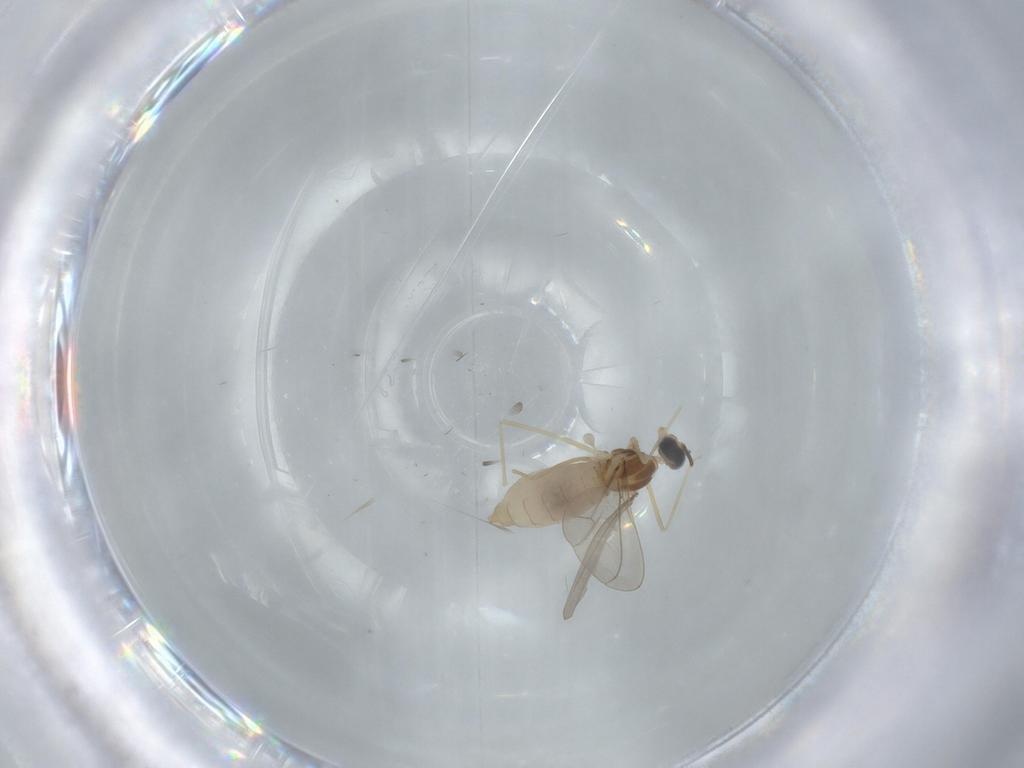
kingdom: Animalia
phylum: Arthropoda
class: Insecta
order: Diptera
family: Cecidomyiidae
